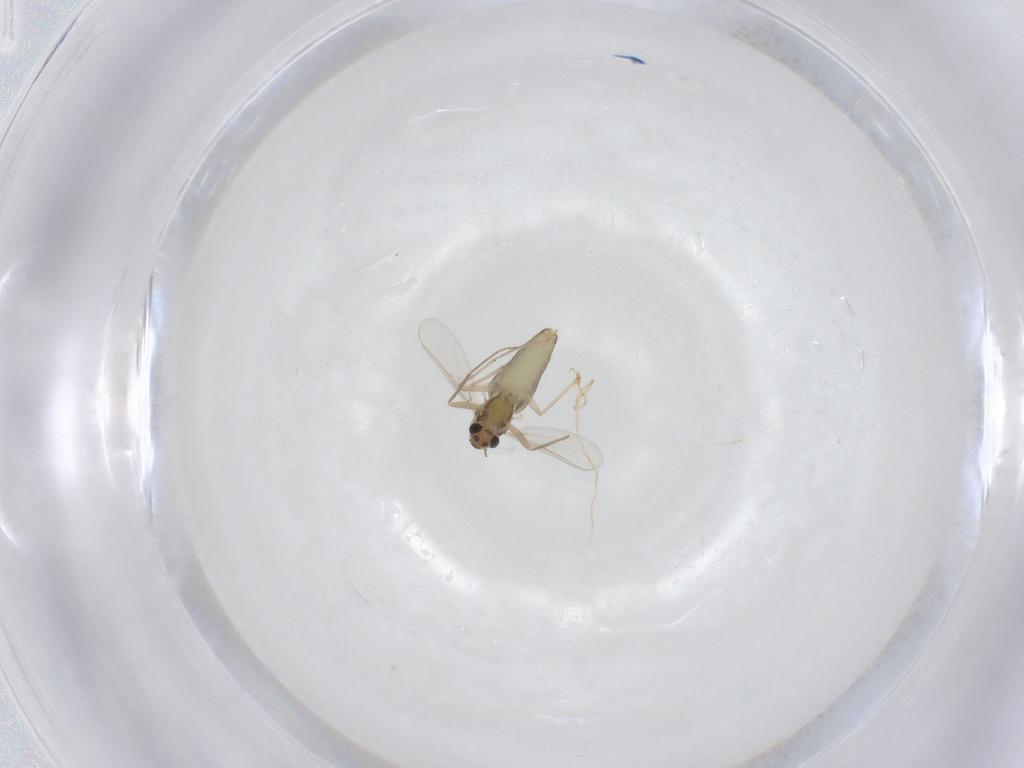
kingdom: Animalia
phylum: Arthropoda
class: Insecta
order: Diptera
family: Chironomidae
